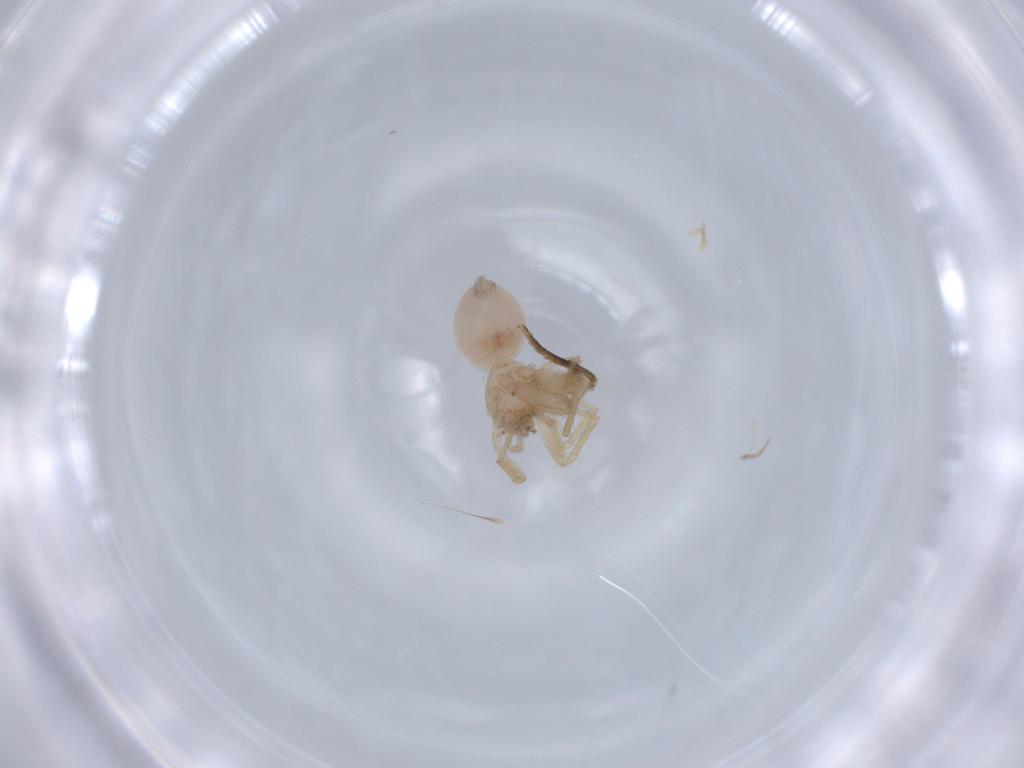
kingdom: Animalia
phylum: Arthropoda
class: Arachnida
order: Araneae
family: Oonopidae
